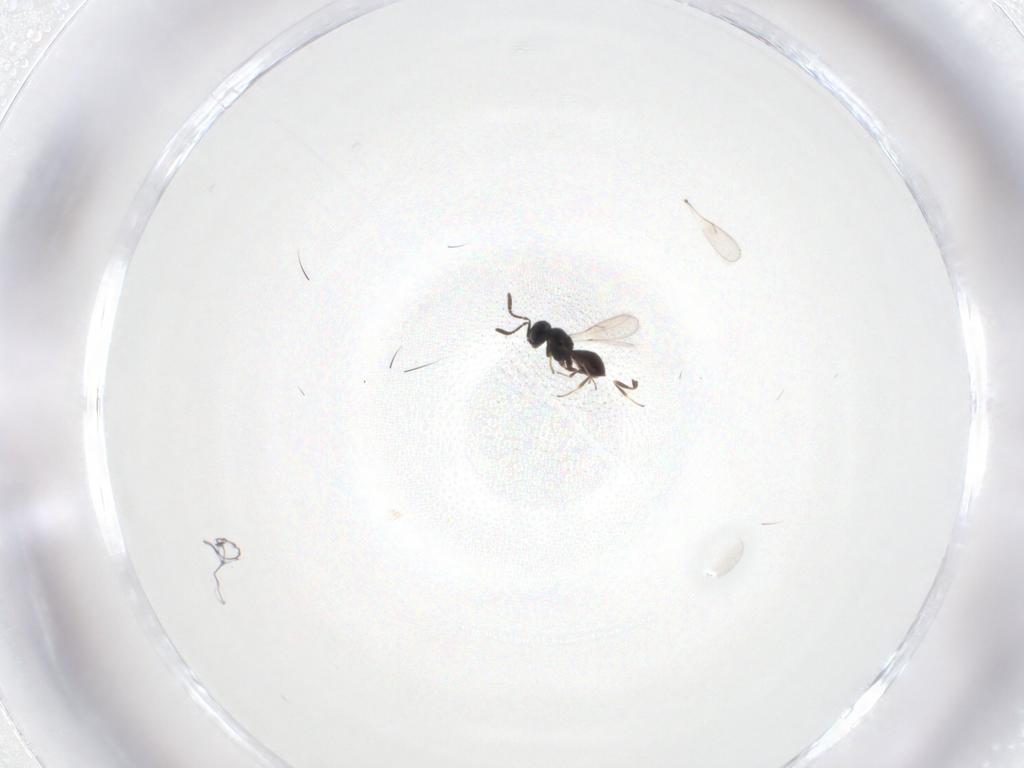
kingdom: Animalia
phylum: Arthropoda
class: Insecta
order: Hymenoptera
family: Scelionidae
